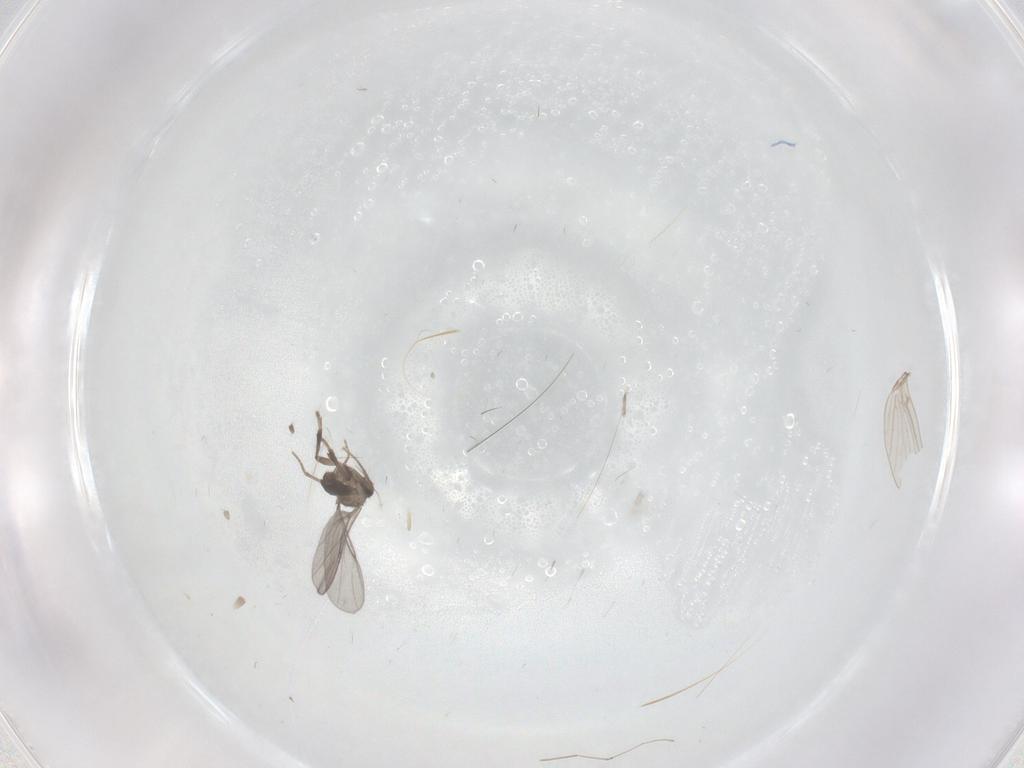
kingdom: Animalia
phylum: Arthropoda
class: Insecta
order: Diptera
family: Phoridae
